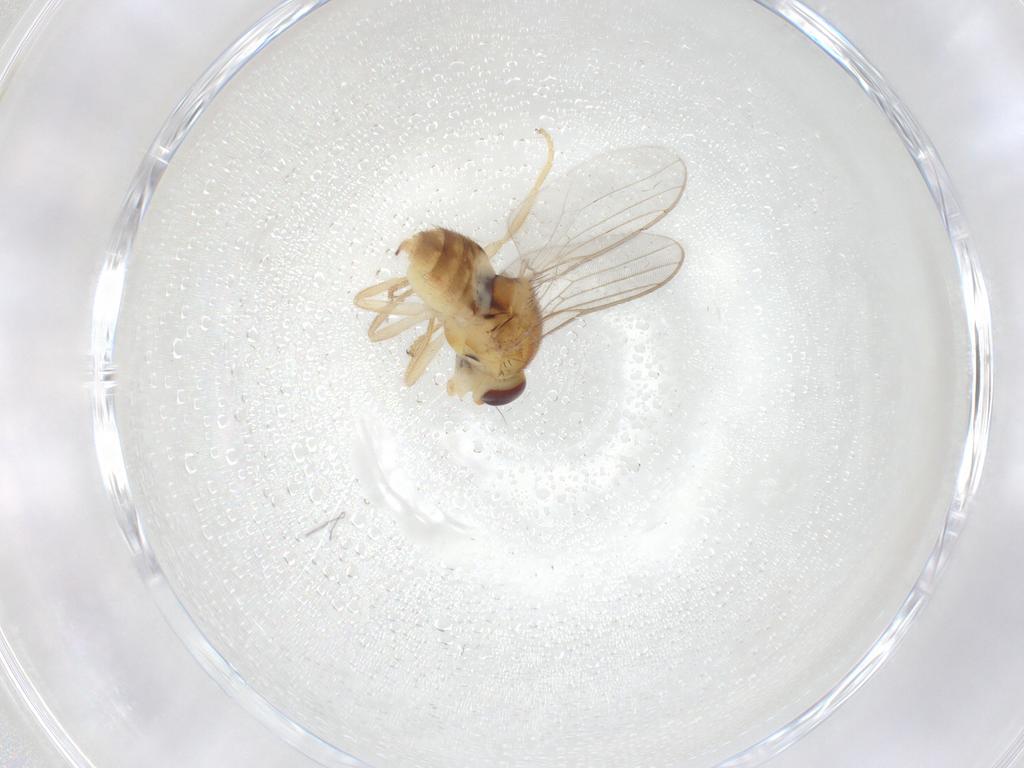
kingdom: Animalia
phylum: Arthropoda
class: Insecta
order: Diptera
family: Chloropidae
